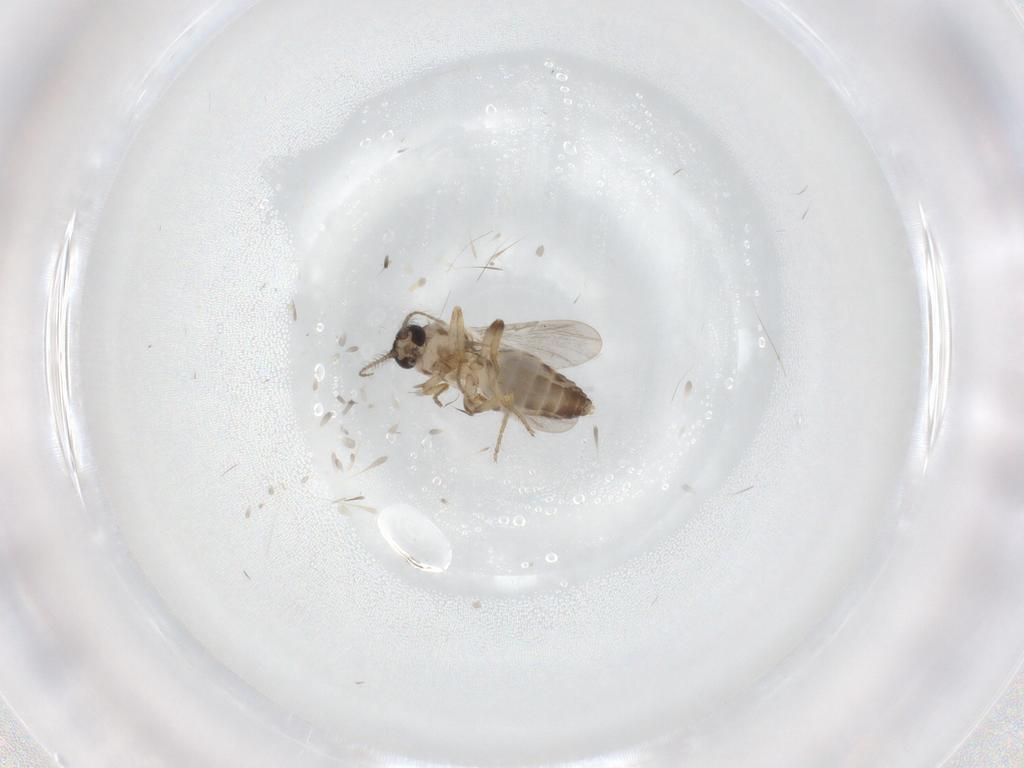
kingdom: Animalia
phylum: Arthropoda
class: Insecta
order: Diptera
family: Ceratopogonidae
